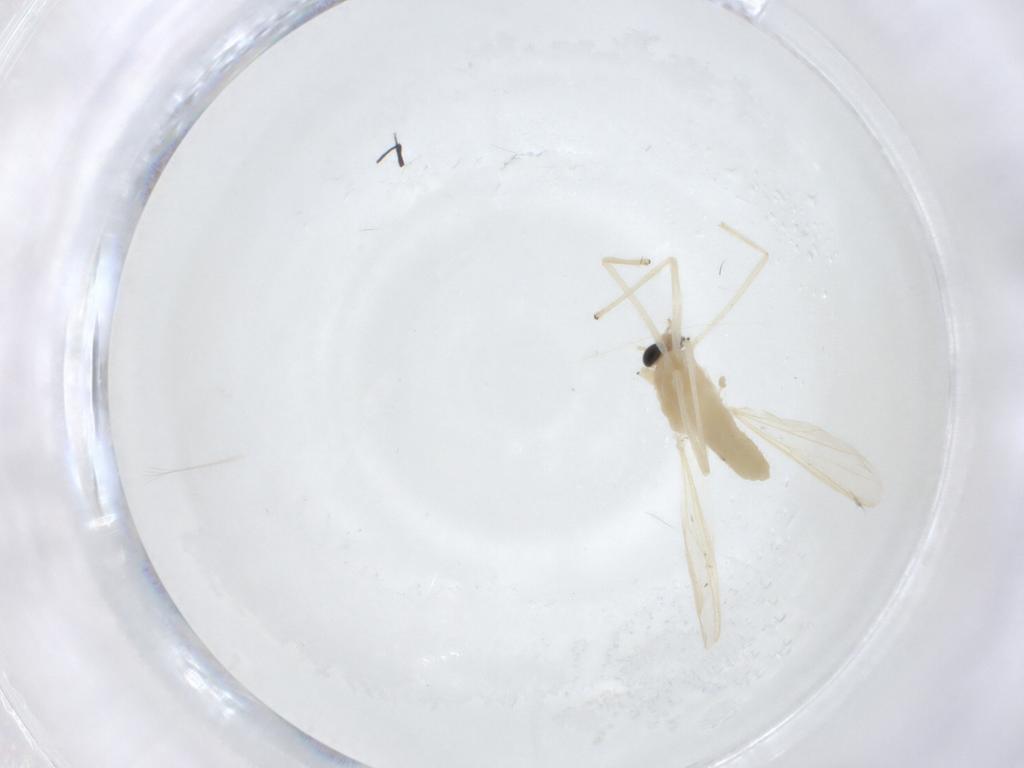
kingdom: Animalia
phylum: Arthropoda
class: Insecta
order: Diptera
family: Chironomidae
